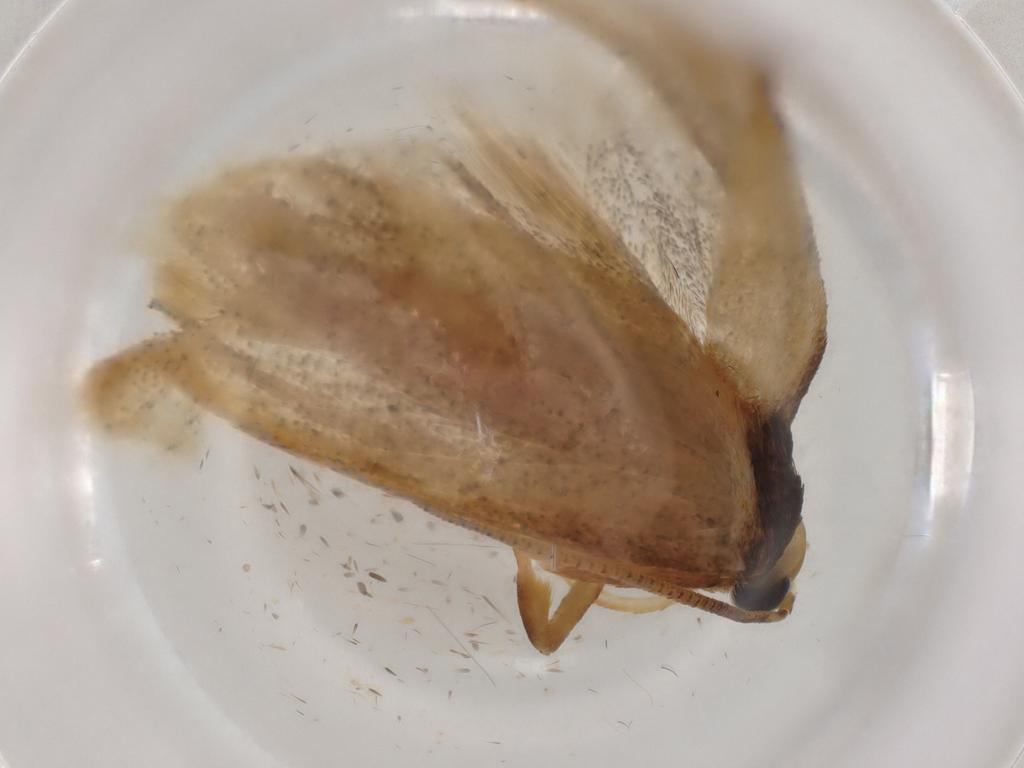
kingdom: Animalia
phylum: Arthropoda
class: Insecta
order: Lepidoptera
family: Oecophoridae
